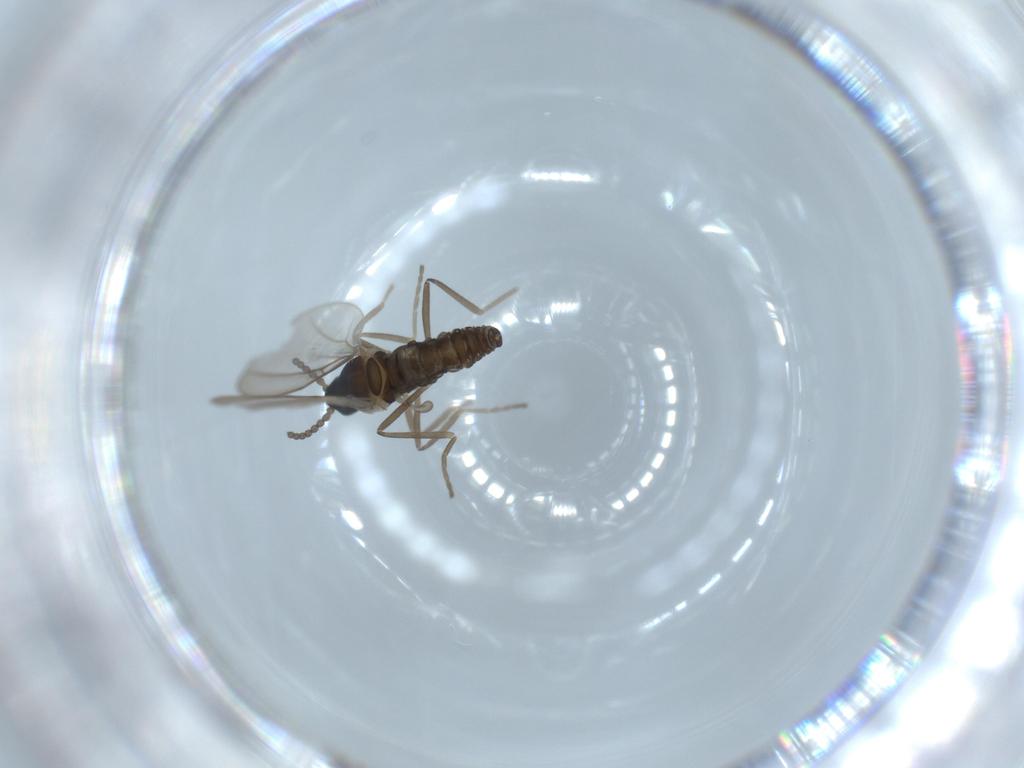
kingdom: Animalia
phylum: Arthropoda
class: Insecta
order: Diptera
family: Cecidomyiidae
